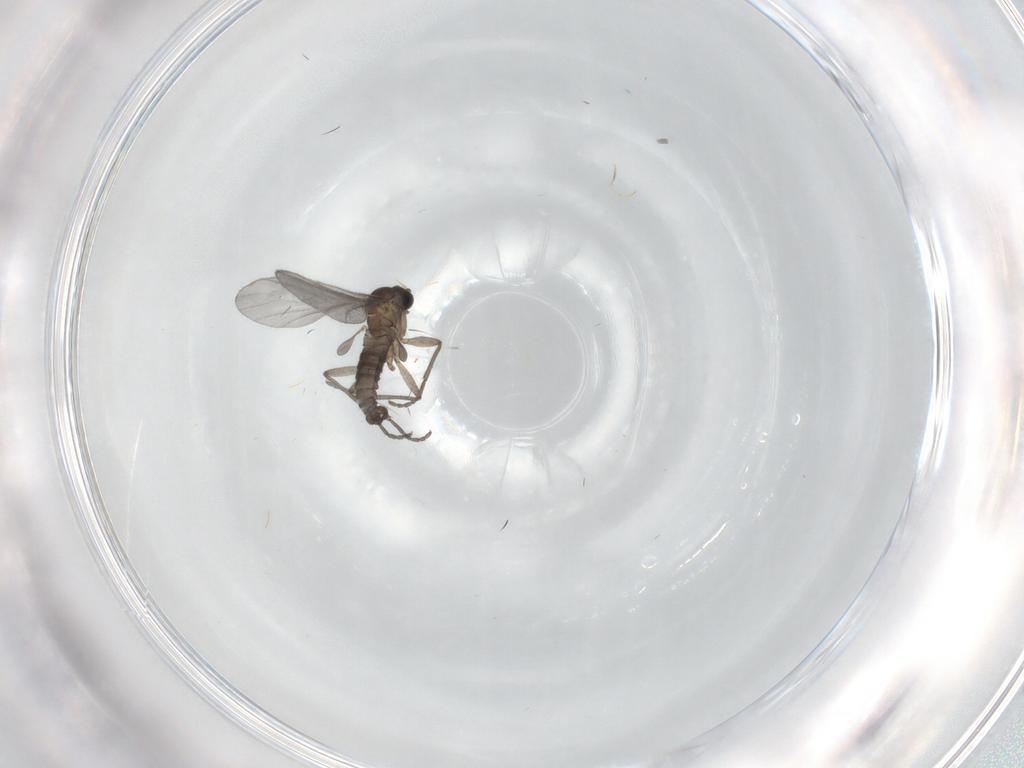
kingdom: Animalia
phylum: Arthropoda
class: Insecta
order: Diptera
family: Sciaridae
